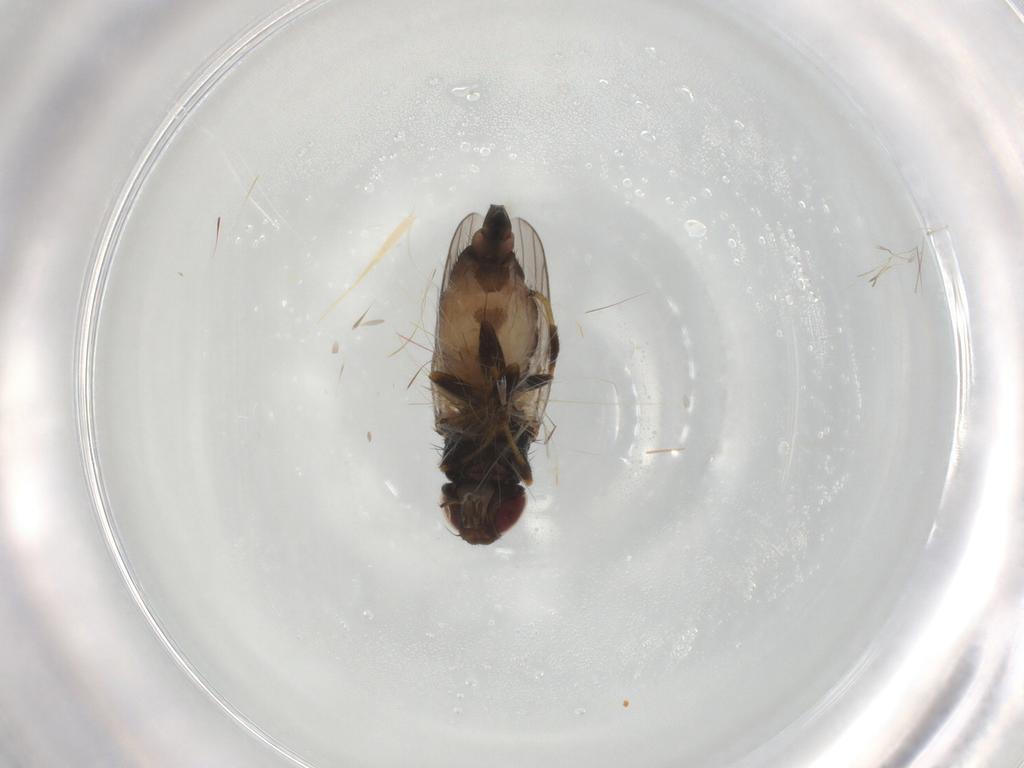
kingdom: Animalia
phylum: Arthropoda
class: Insecta
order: Diptera
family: Chloropidae
